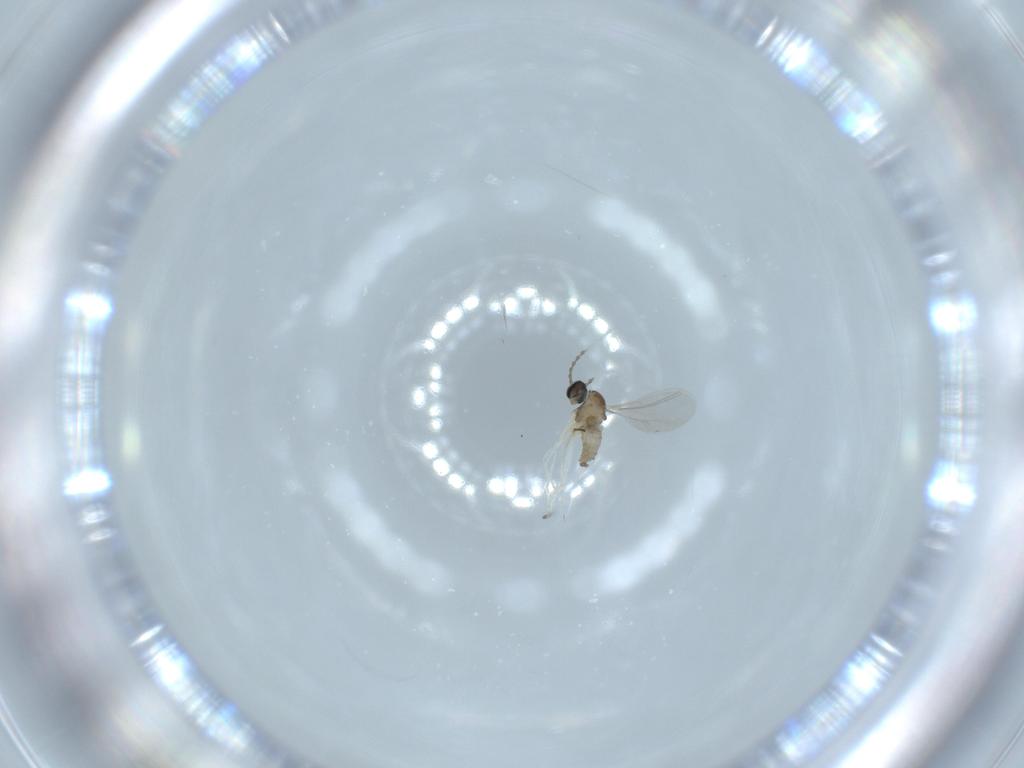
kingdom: Animalia
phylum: Arthropoda
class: Insecta
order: Diptera
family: Cecidomyiidae
